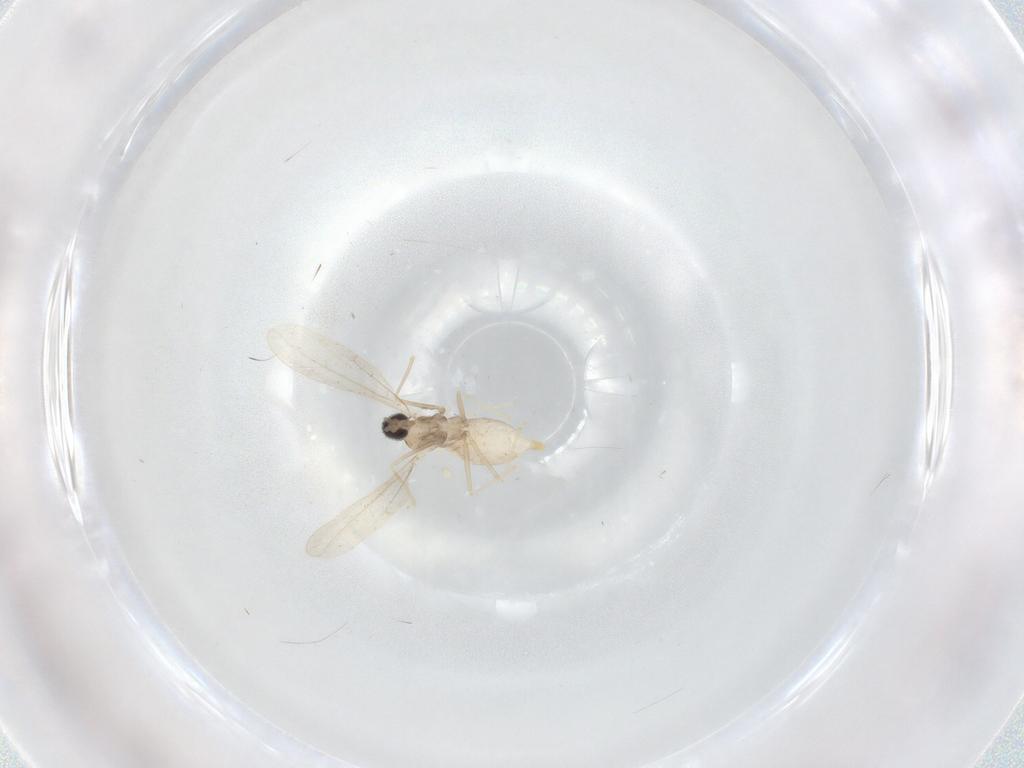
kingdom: Animalia
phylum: Arthropoda
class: Insecta
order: Diptera
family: Cecidomyiidae
